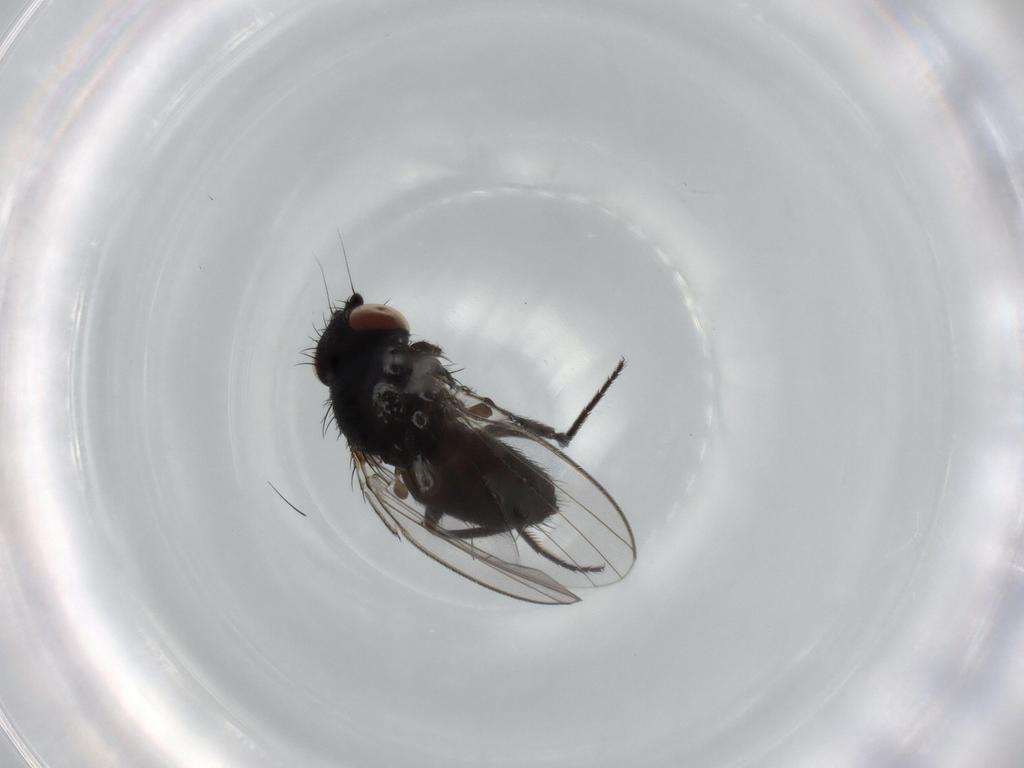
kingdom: Animalia
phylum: Arthropoda
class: Insecta
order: Diptera
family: Milichiidae
